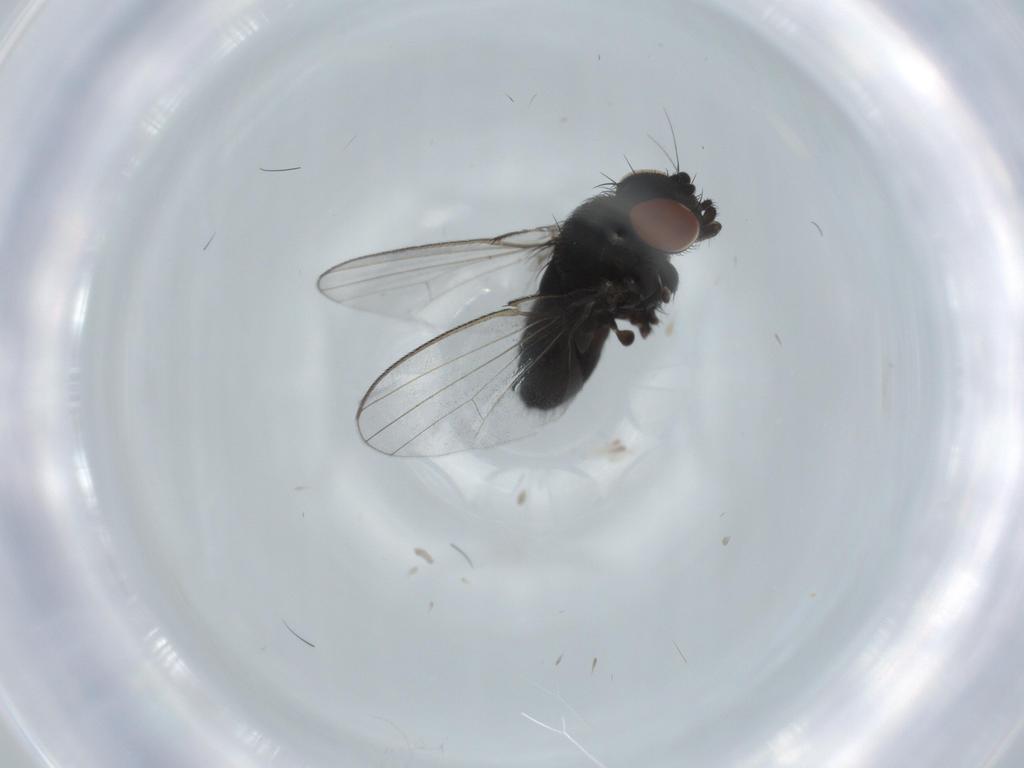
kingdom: Animalia
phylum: Arthropoda
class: Insecta
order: Diptera
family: Milichiidae
